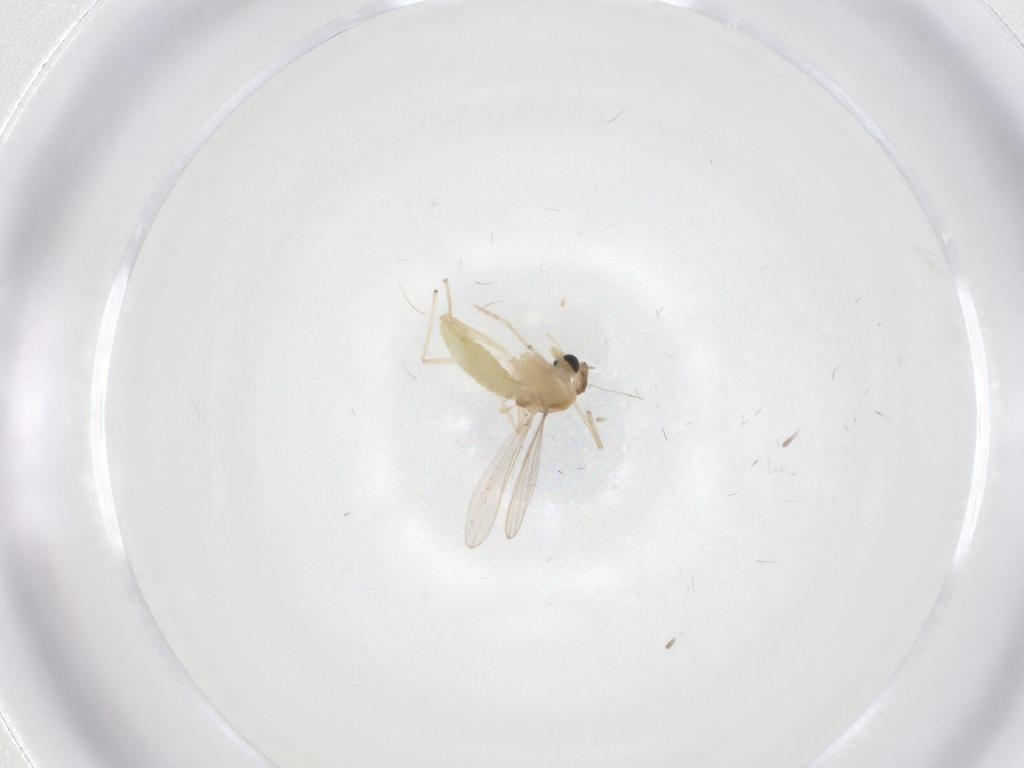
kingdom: Animalia
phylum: Arthropoda
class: Insecta
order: Diptera
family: Chironomidae
